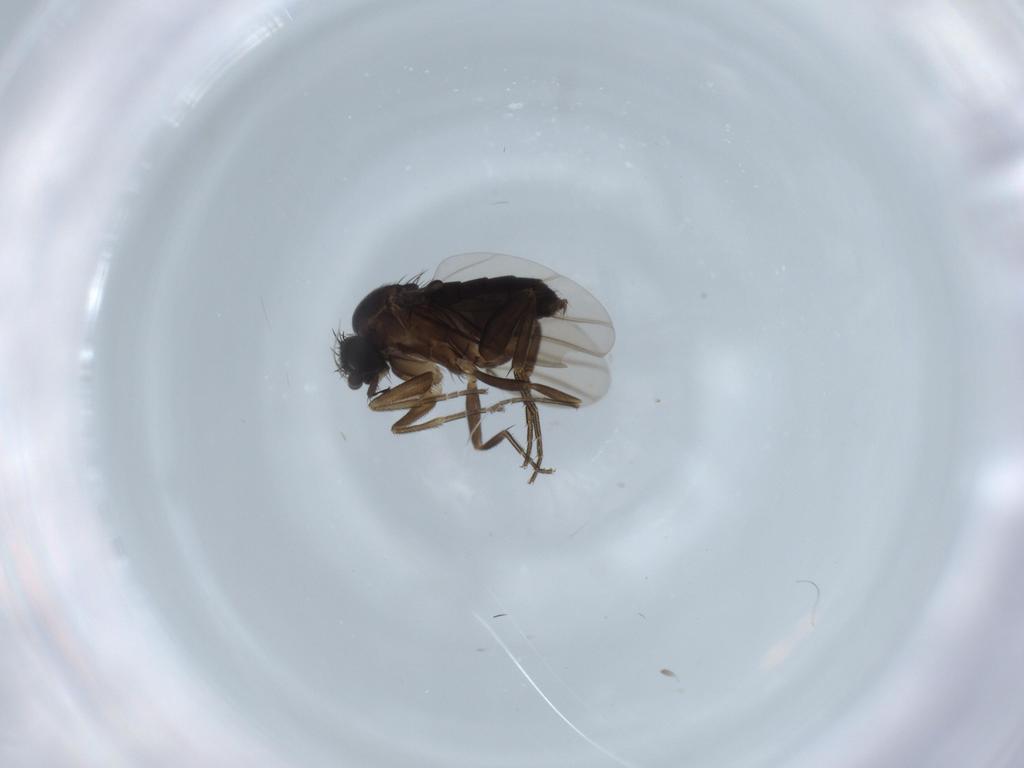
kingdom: Animalia
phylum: Arthropoda
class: Insecta
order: Diptera
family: Phoridae
